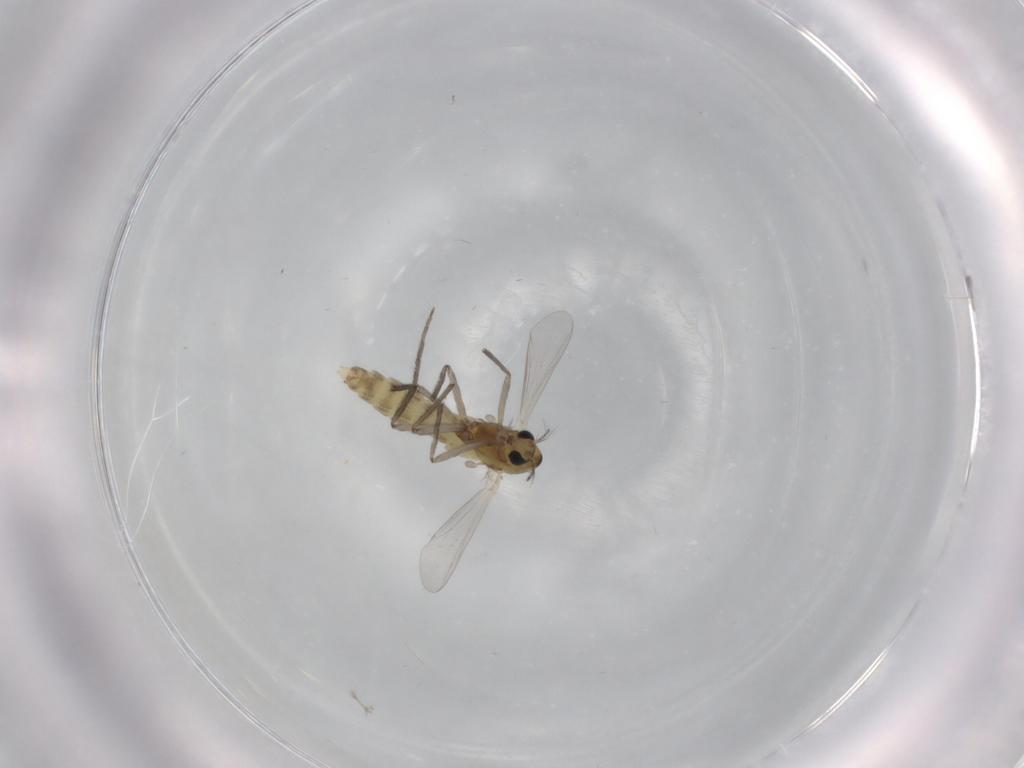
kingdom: Animalia
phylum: Arthropoda
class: Insecta
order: Diptera
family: Chironomidae
